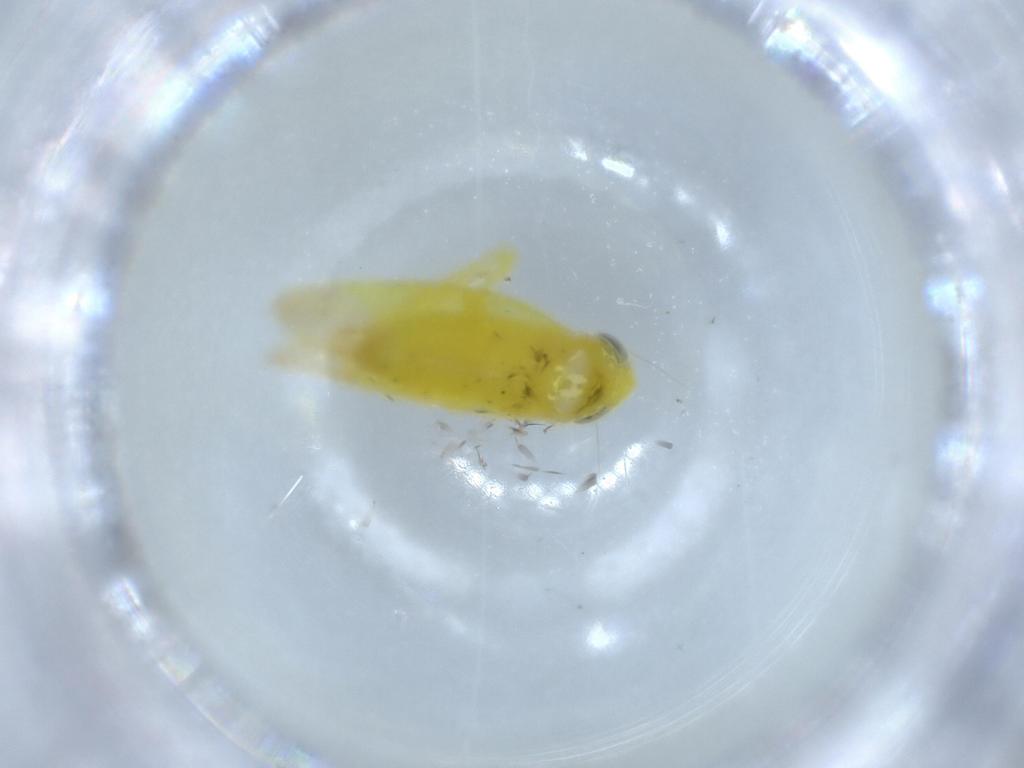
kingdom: Animalia
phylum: Arthropoda
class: Insecta
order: Hemiptera
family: Cicadellidae
